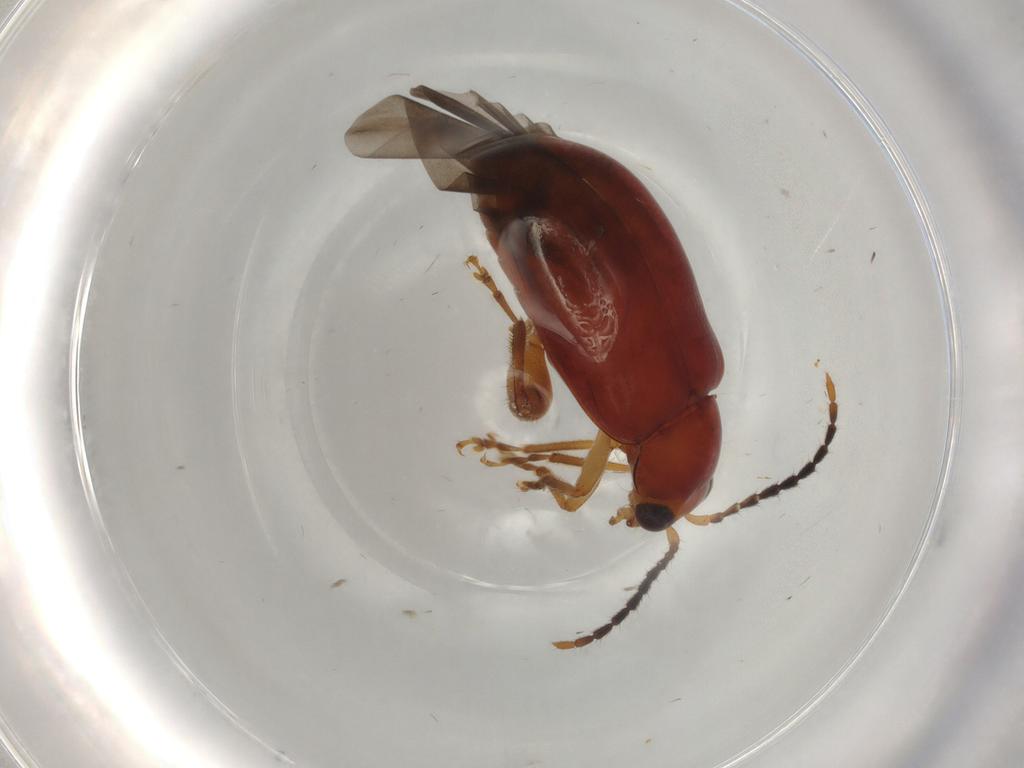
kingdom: Animalia
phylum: Arthropoda
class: Insecta
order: Coleoptera
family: Chrysomelidae
